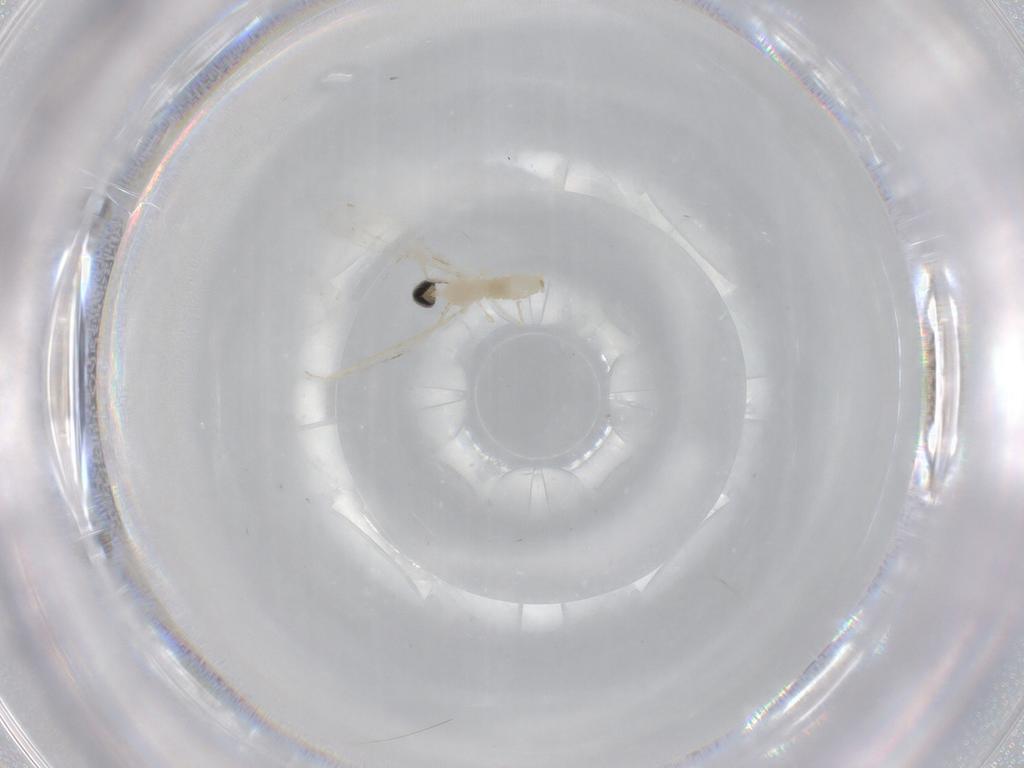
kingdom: Animalia
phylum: Arthropoda
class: Insecta
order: Diptera
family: Cecidomyiidae
